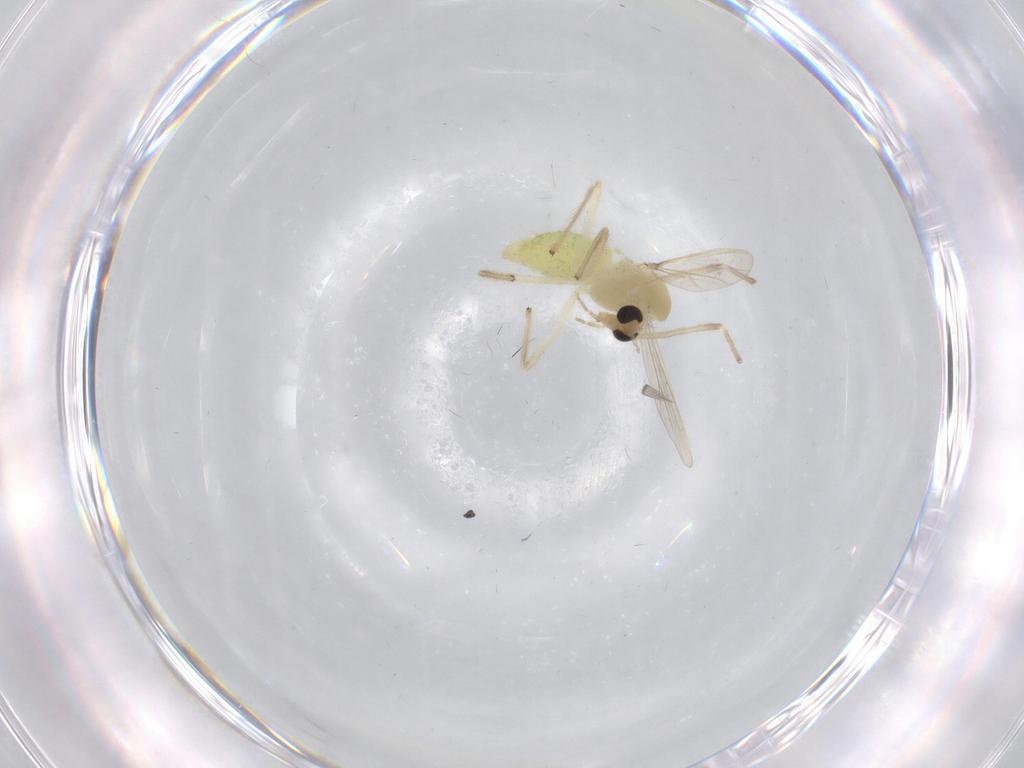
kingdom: Animalia
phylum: Arthropoda
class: Insecta
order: Diptera
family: Chironomidae
